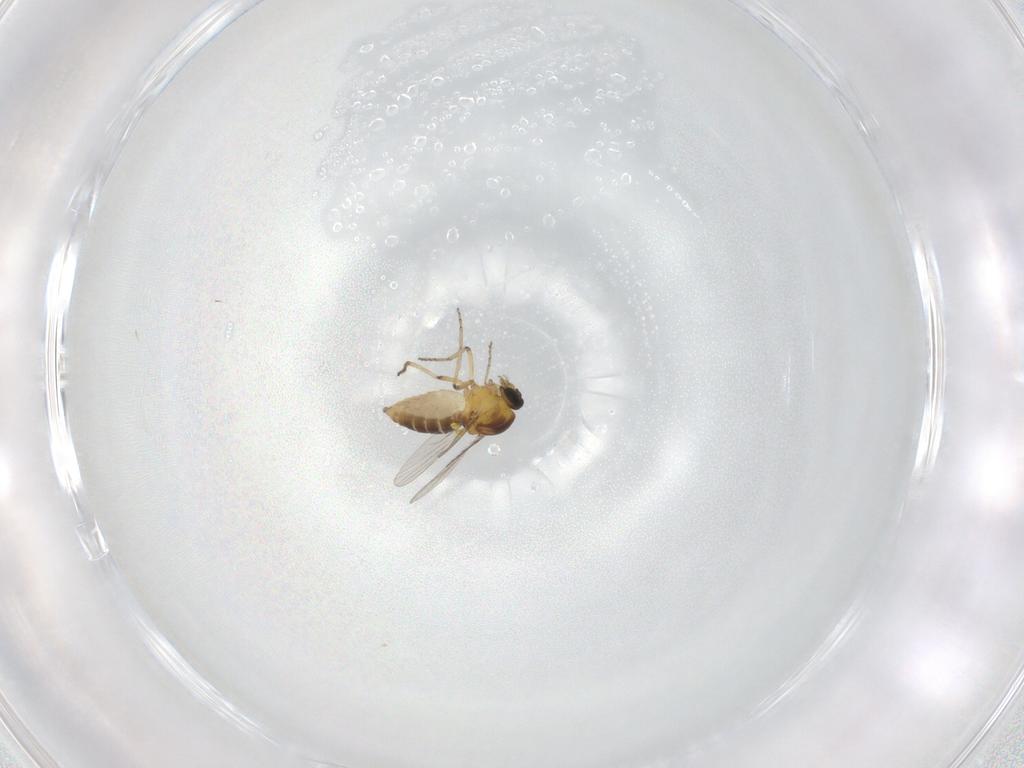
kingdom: Animalia
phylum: Arthropoda
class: Insecta
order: Diptera
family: Ceratopogonidae
